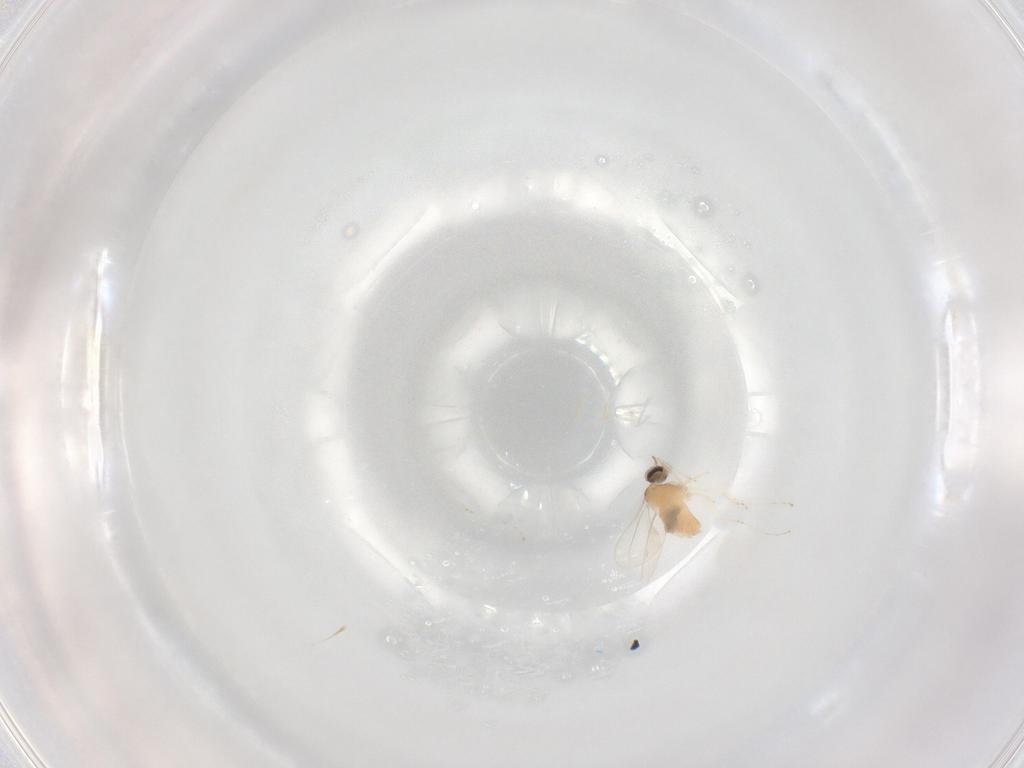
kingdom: Animalia
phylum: Arthropoda
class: Insecta
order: Diptera
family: Cecidomyiidae
